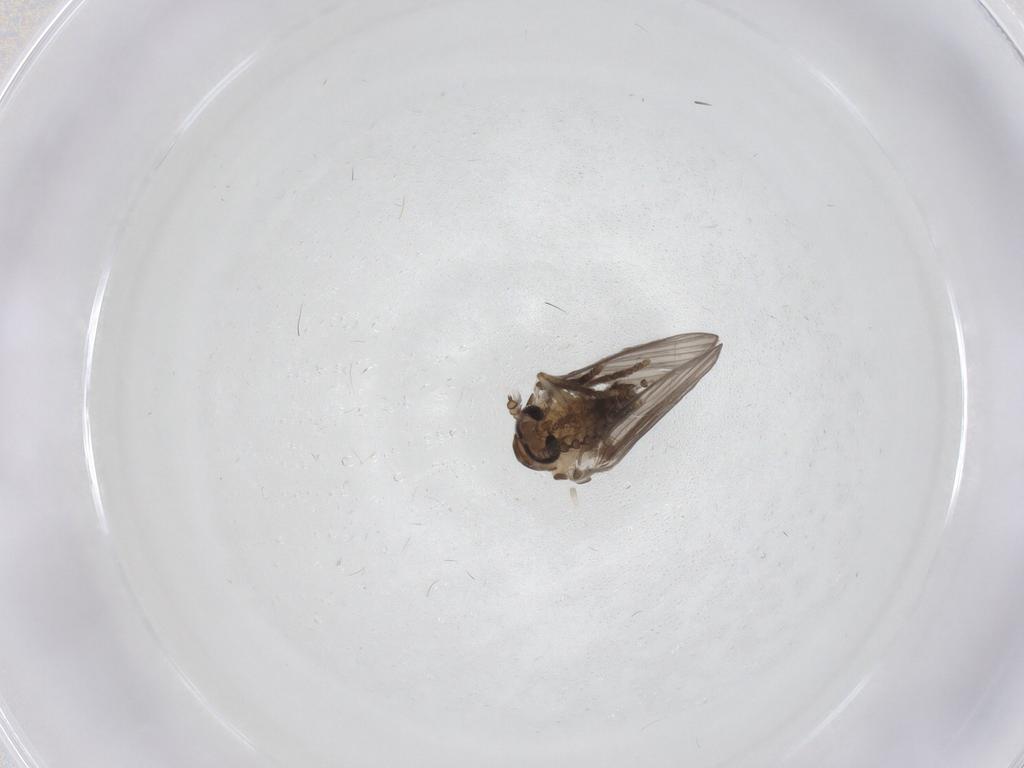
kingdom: Animalia
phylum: Arthropoda
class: Insecta
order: Diptera
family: Psychodidae
